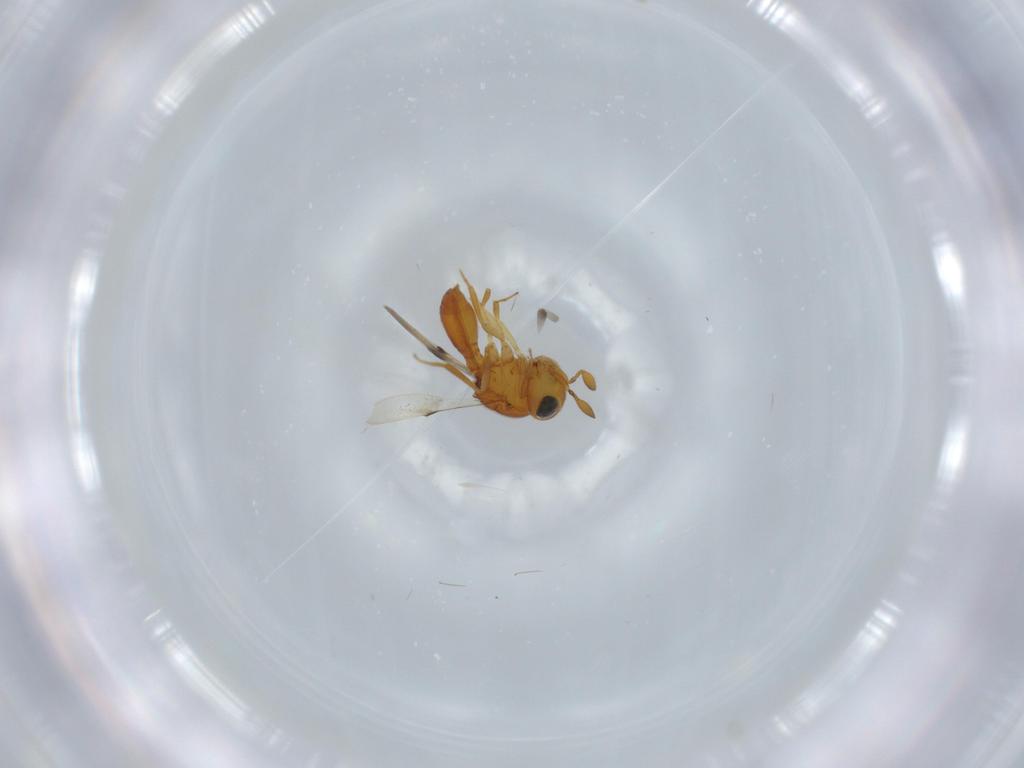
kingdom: Animalia
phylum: Arthropoda
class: Insecta
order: Hymenoptera
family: Scelionidae
